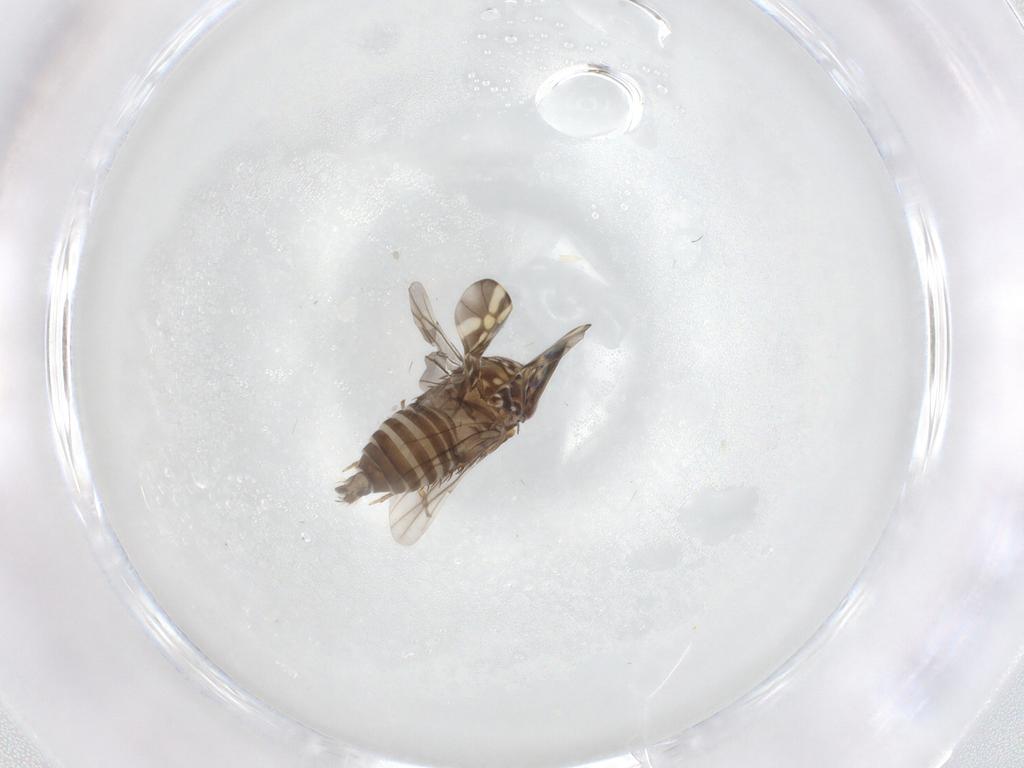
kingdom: Animalia
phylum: Arthropoda
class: Insecta
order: Hemiptera
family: Cicadellidae
